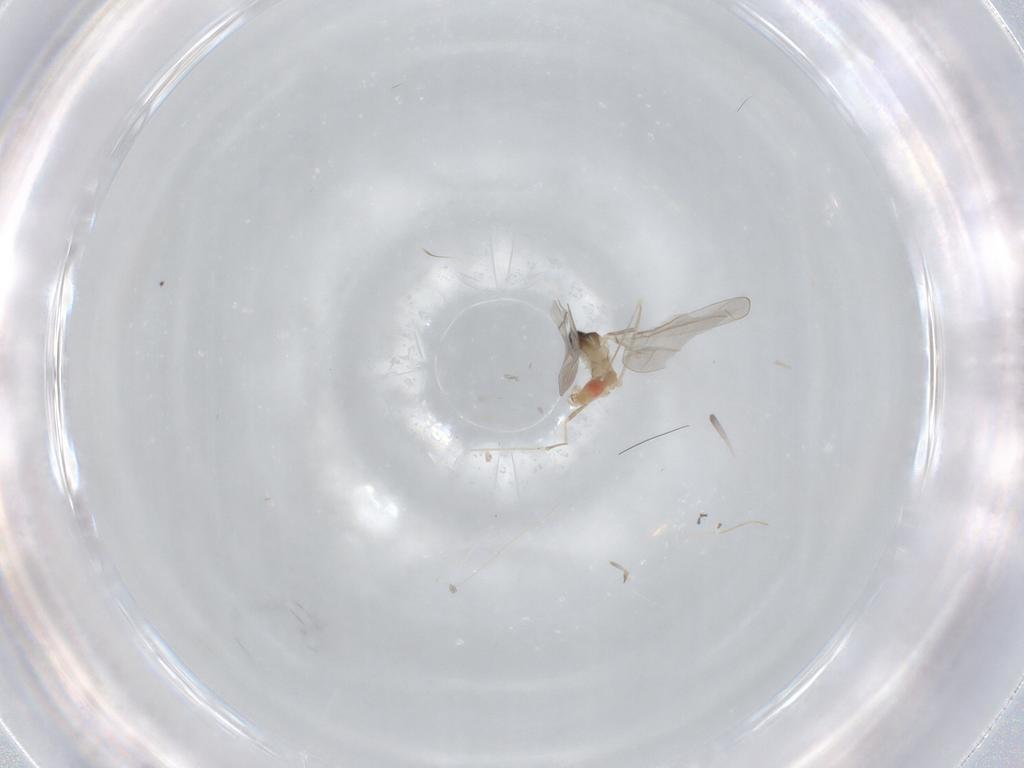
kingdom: Animalia
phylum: Arthropoda
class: Insecta
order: Diptera
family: Cecidomyiidae
